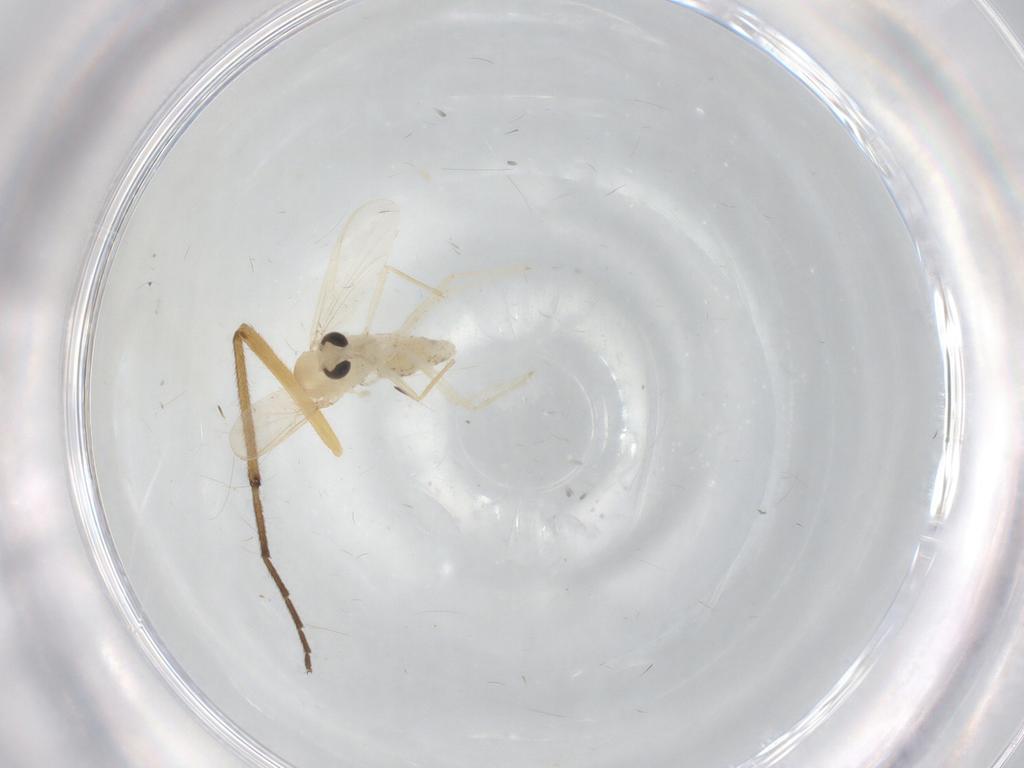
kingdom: Animalia
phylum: Arthropoda
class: Insecta
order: Diptera
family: Chironomidae
